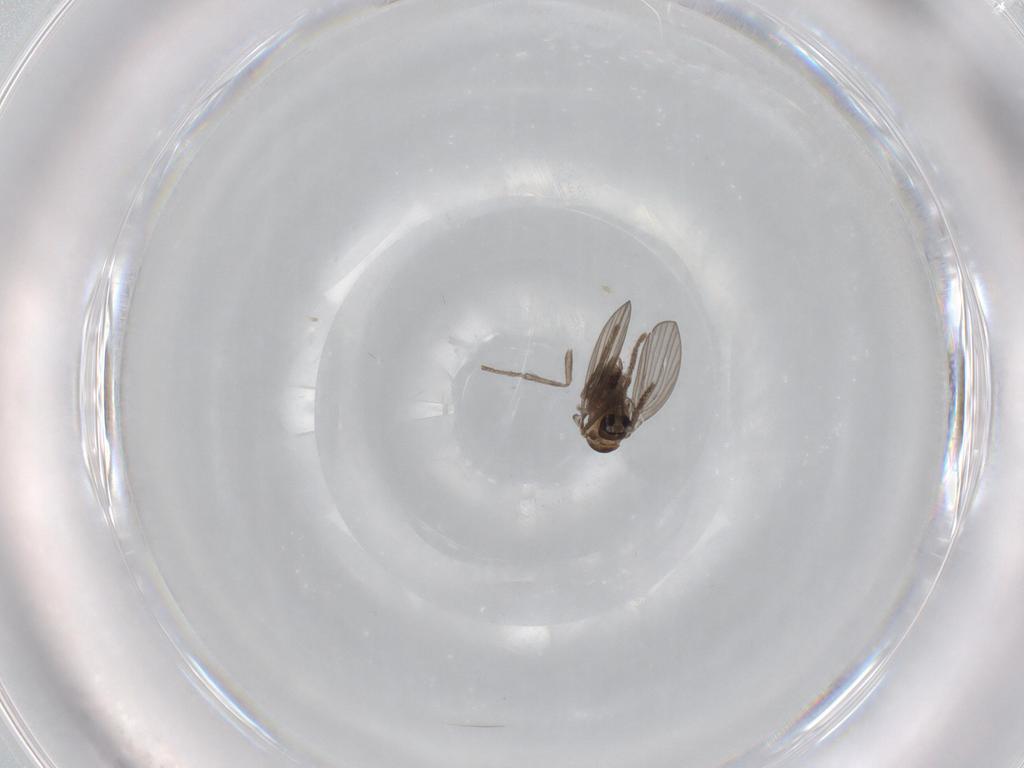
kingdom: Animalia
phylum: Arthropoda
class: Insecta
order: Diptera
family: Psychodidae
